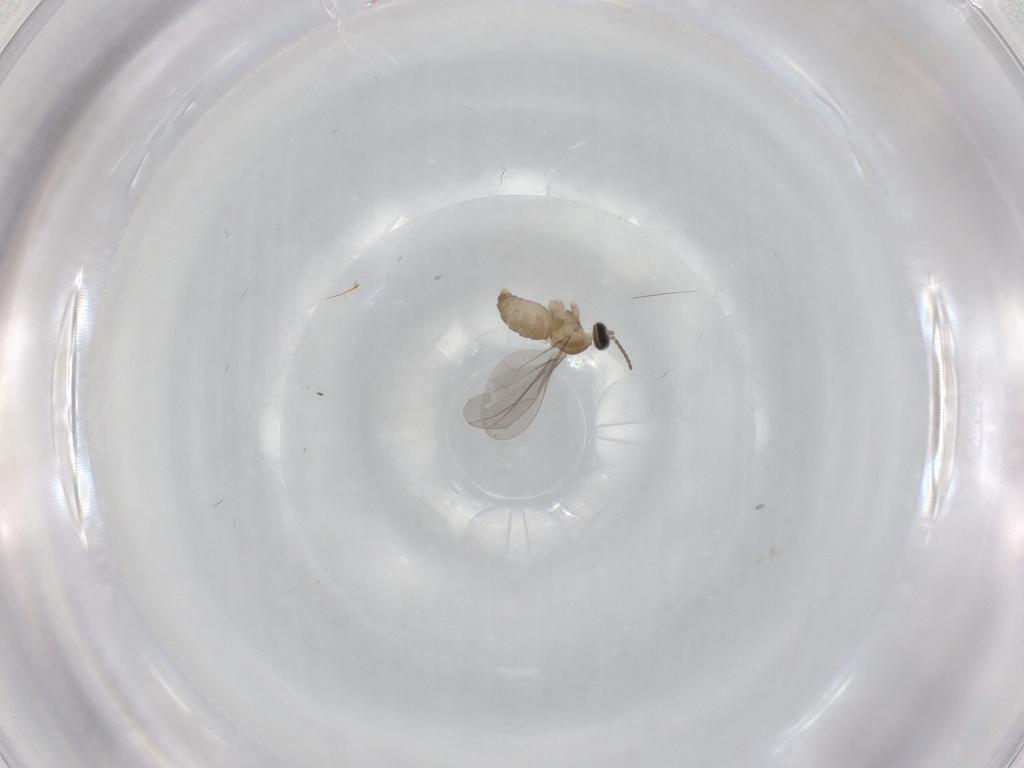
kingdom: Animalia
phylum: Arthropoda
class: Insecta
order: Diptera
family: Cecidomyiidae
